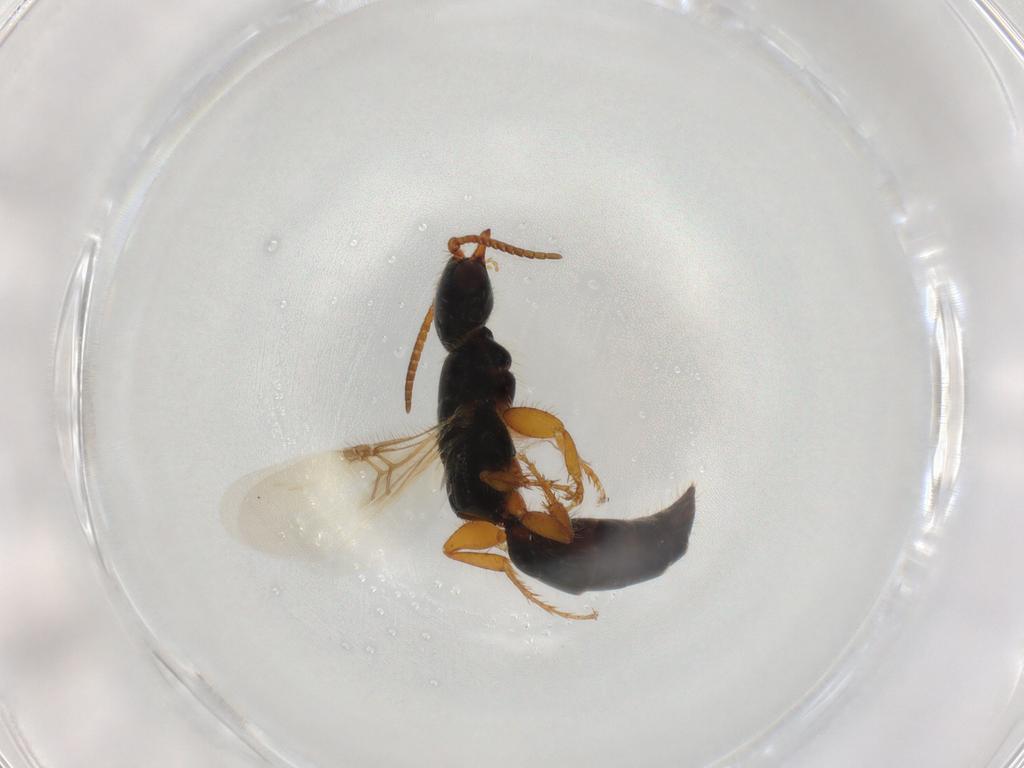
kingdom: Animalia
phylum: Arthropoda
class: Insecta
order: Hymenoptera
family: Bethylidae
